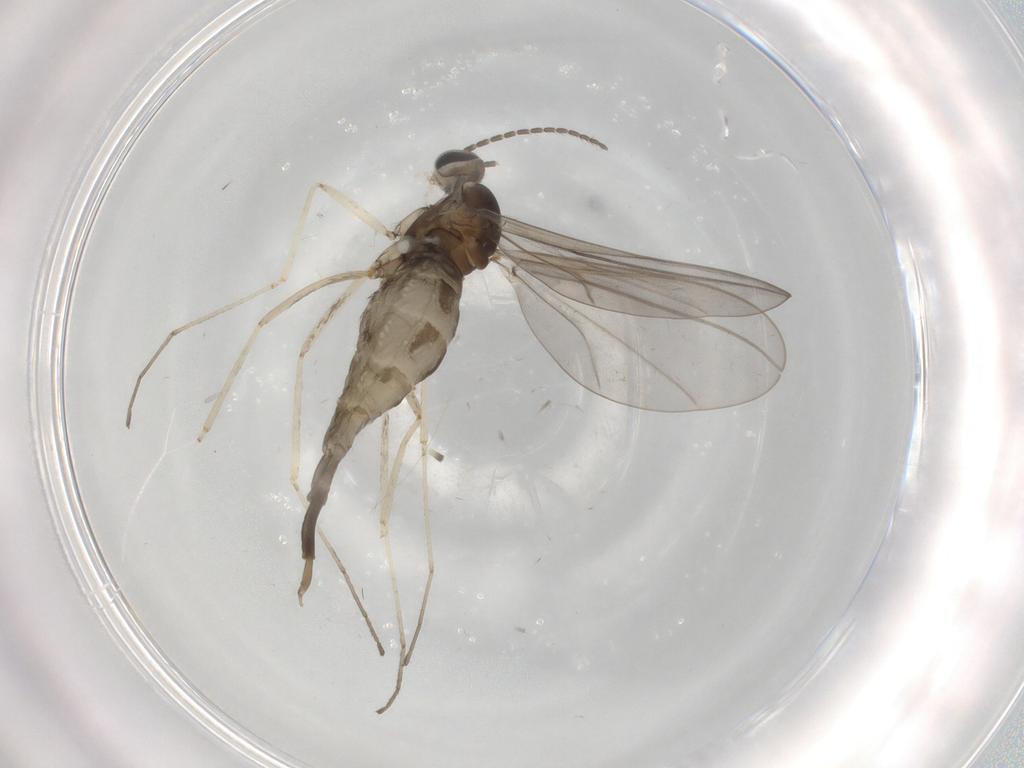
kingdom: Animalia
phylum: Arthropoda
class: Insecta
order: Diptera
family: Cecidomyiidae
